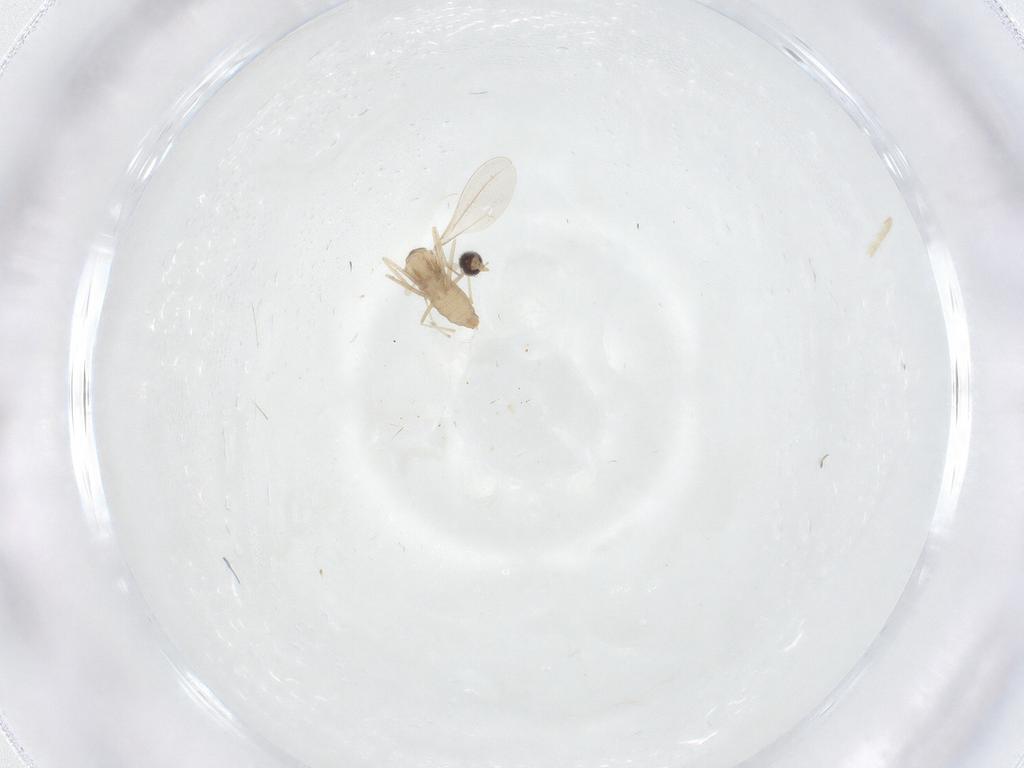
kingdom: Animalia
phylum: Arthropoda
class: Insecta
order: Diptera
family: Cecidomyiidae
